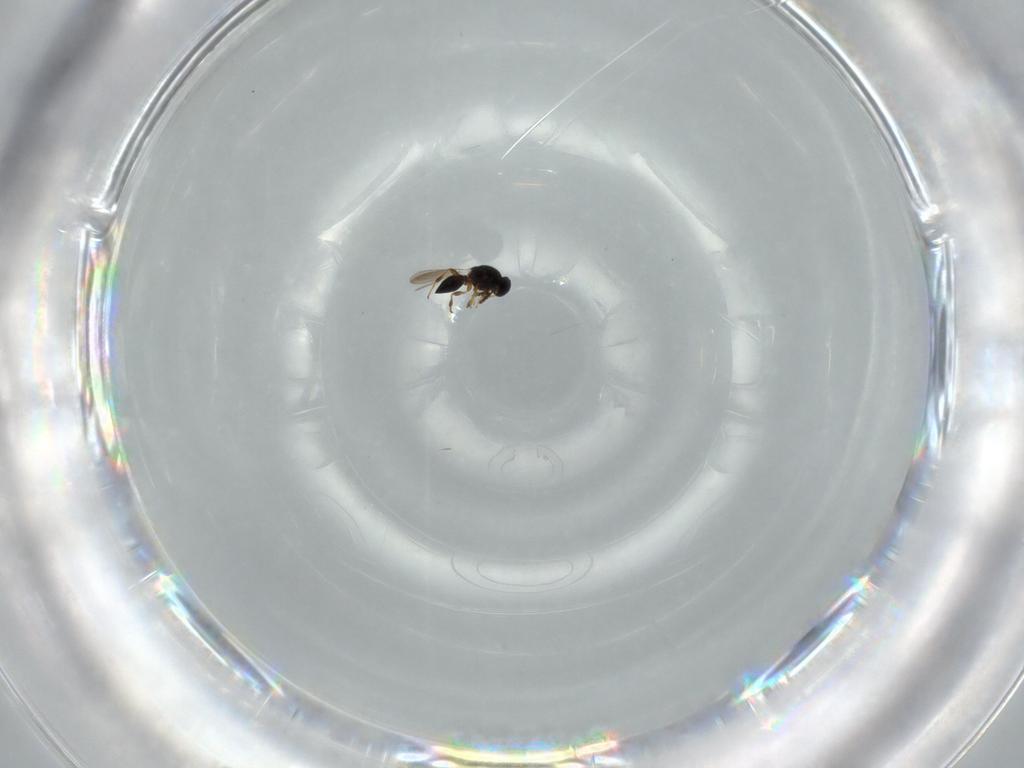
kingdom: Animalia
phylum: Arthropoda
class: Insecta
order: Hymenoptera
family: Platygastridae
